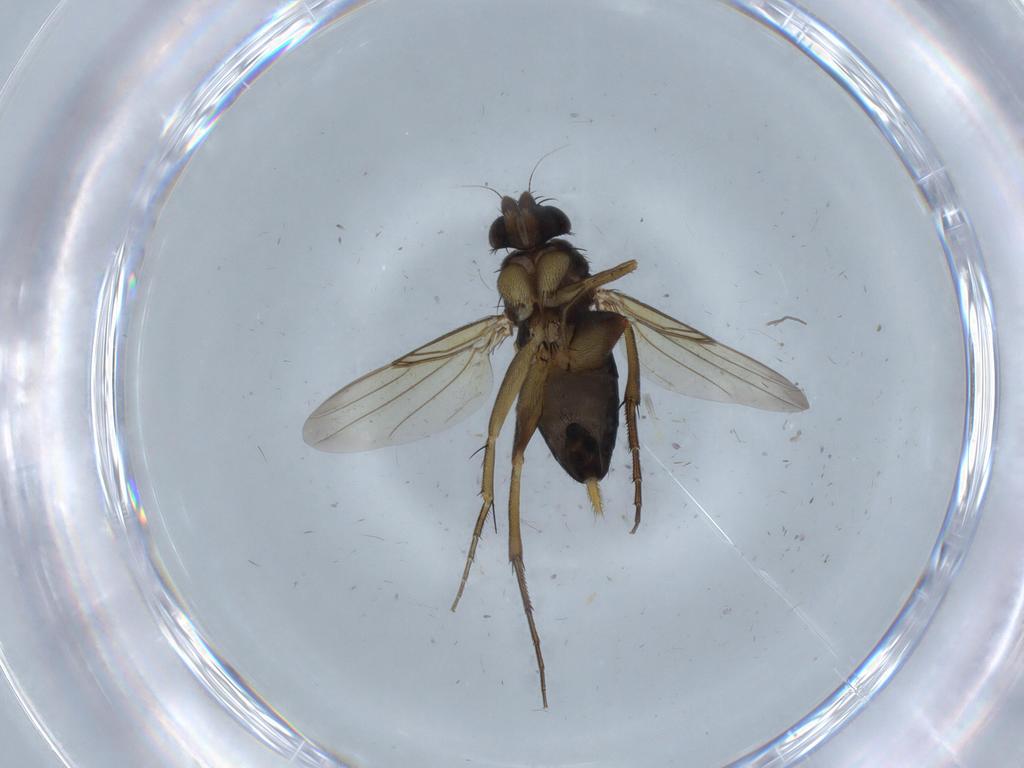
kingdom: Animalia
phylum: Arthropoda
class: Insecta
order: Diptera
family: Phoridae
